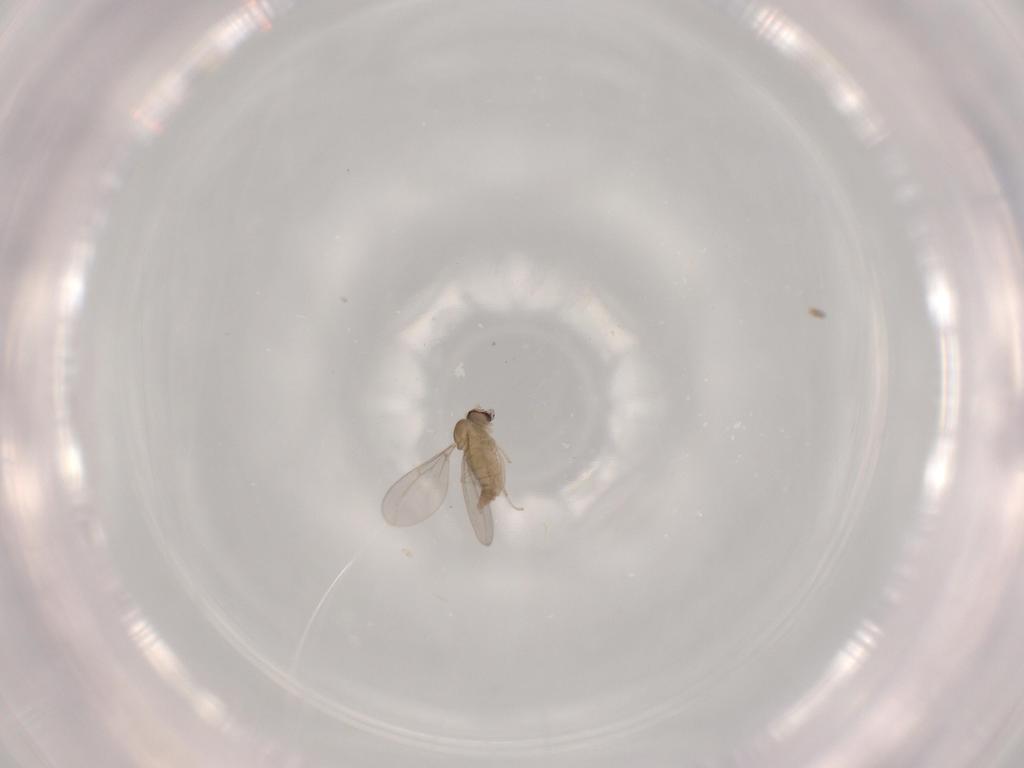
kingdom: Animalia
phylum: Arthropoda
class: Insecta
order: Diptera
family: Cecidomyiidae
